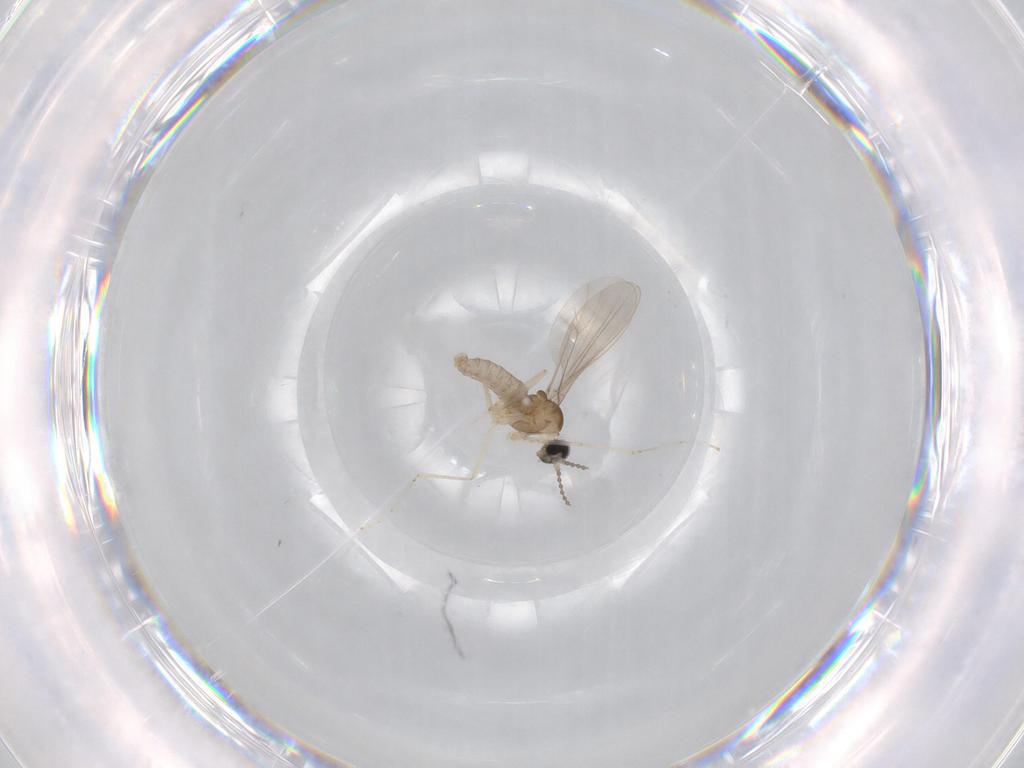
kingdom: Animalia
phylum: Arthropoda
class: Insecta
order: Diptera
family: Cecidomyiidae
